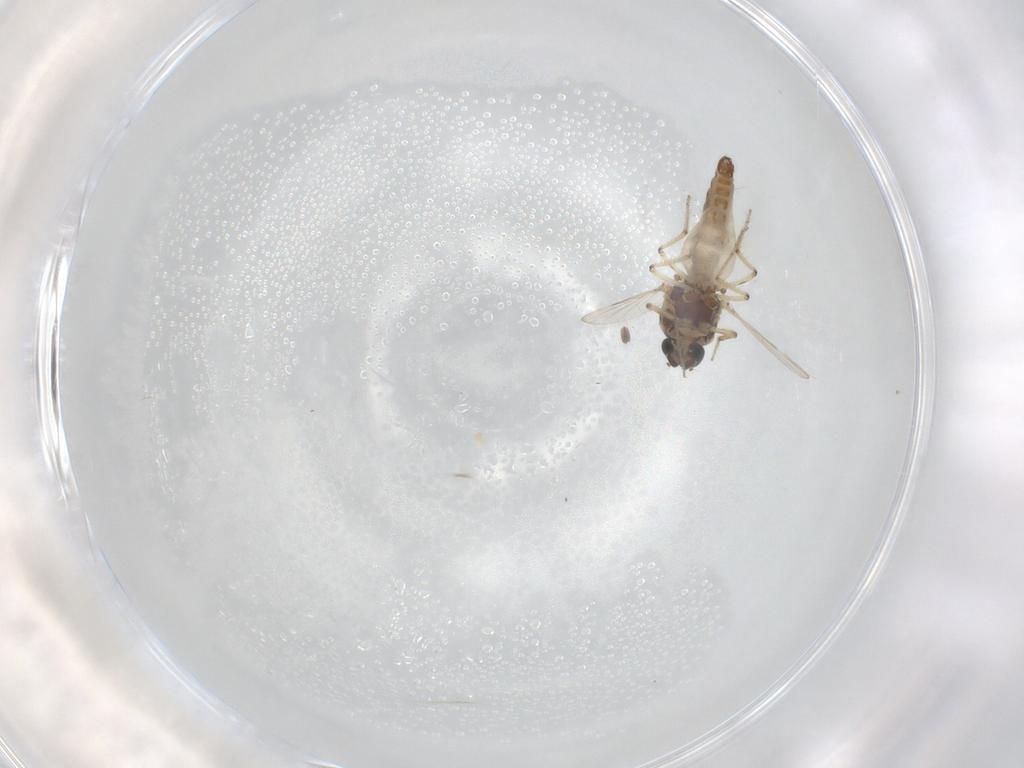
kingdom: Animalia
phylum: Arthropoda
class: Insecta
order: Diptera
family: Ceratopogonidae
